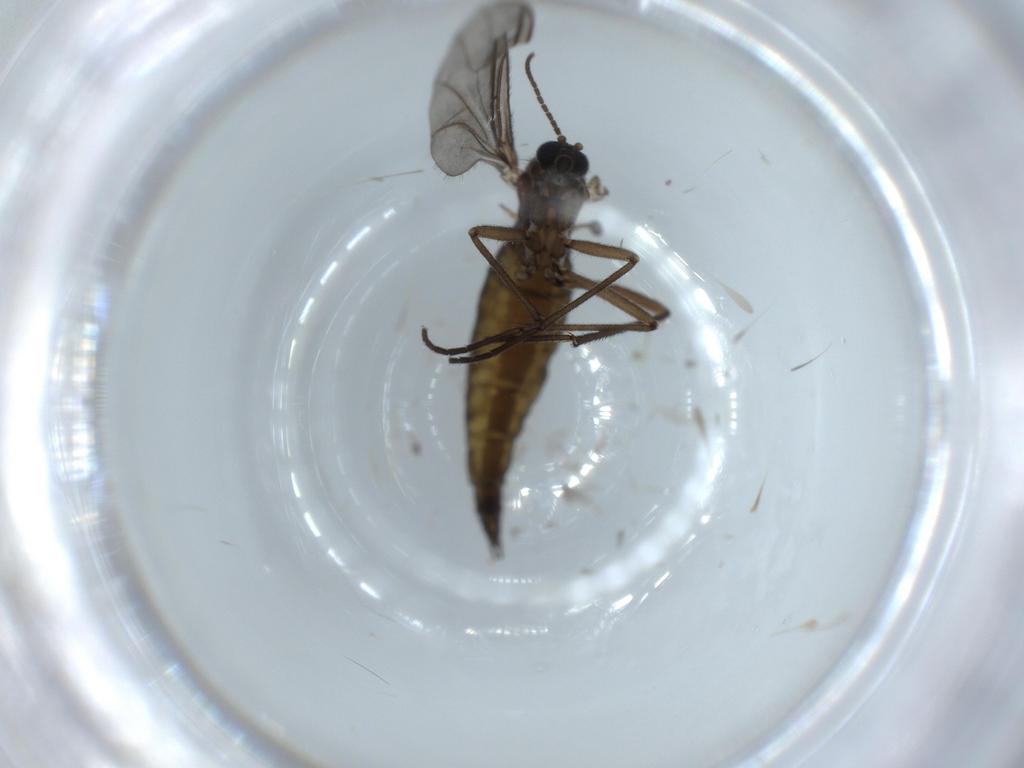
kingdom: Animalia
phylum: Arthropoda
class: Insecta
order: Diptera
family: Sciaridae
